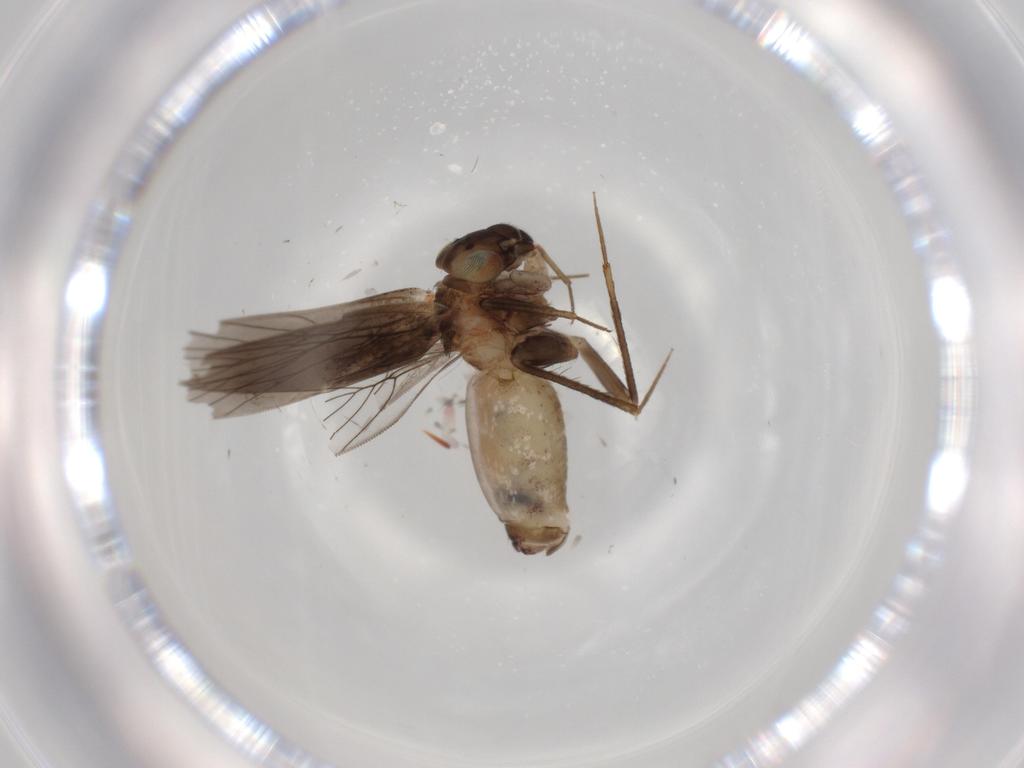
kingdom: Animalia
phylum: Arthropoda
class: Insecta
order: Psocodea
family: Lepidopsocidae
